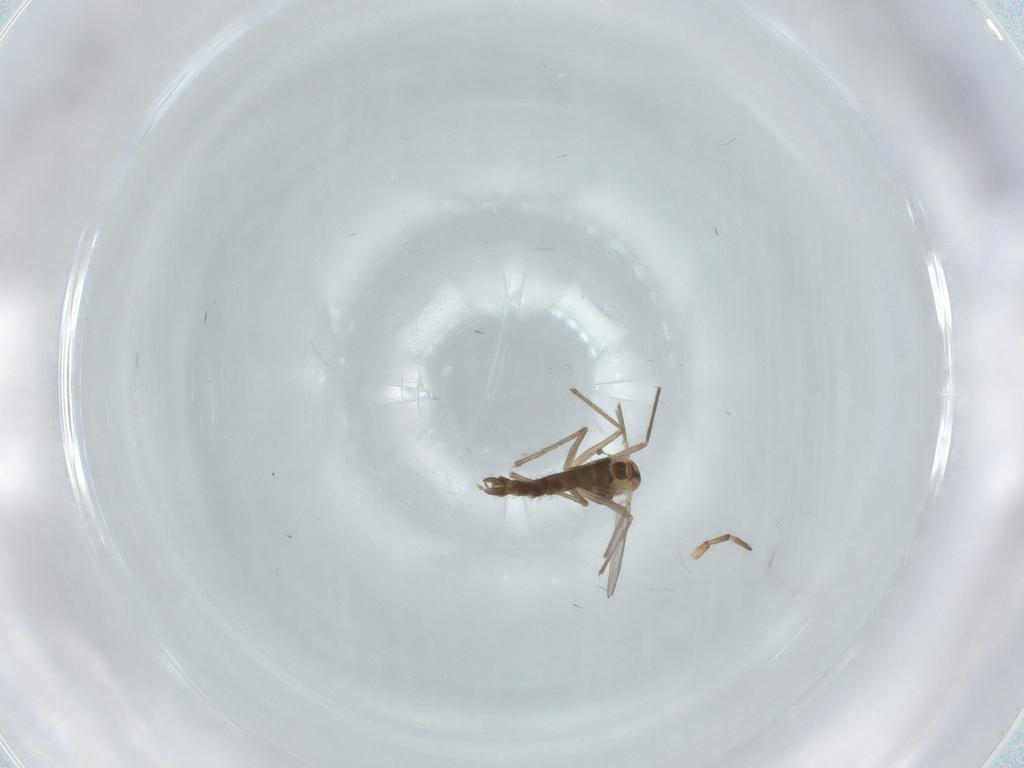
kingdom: Animalia
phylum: Arthropoda
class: Insecta
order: Diptera
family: Chironomidae
